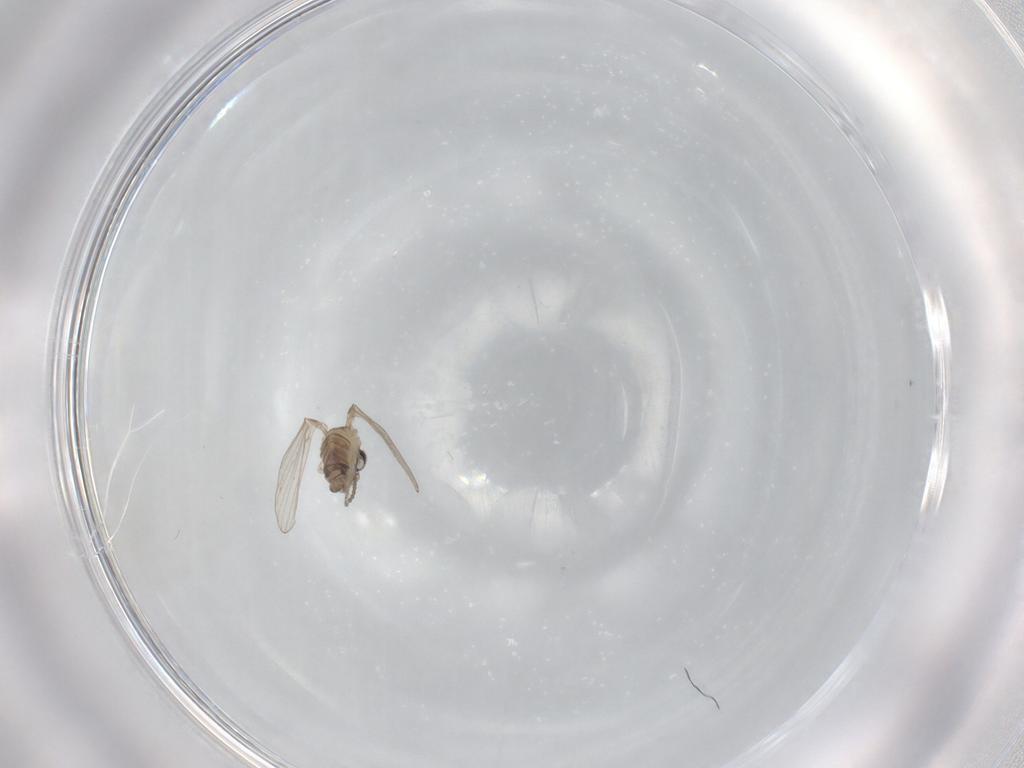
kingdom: Animalia
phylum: Arthropoda
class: Insecta
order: Diptera
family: Psychodidae
